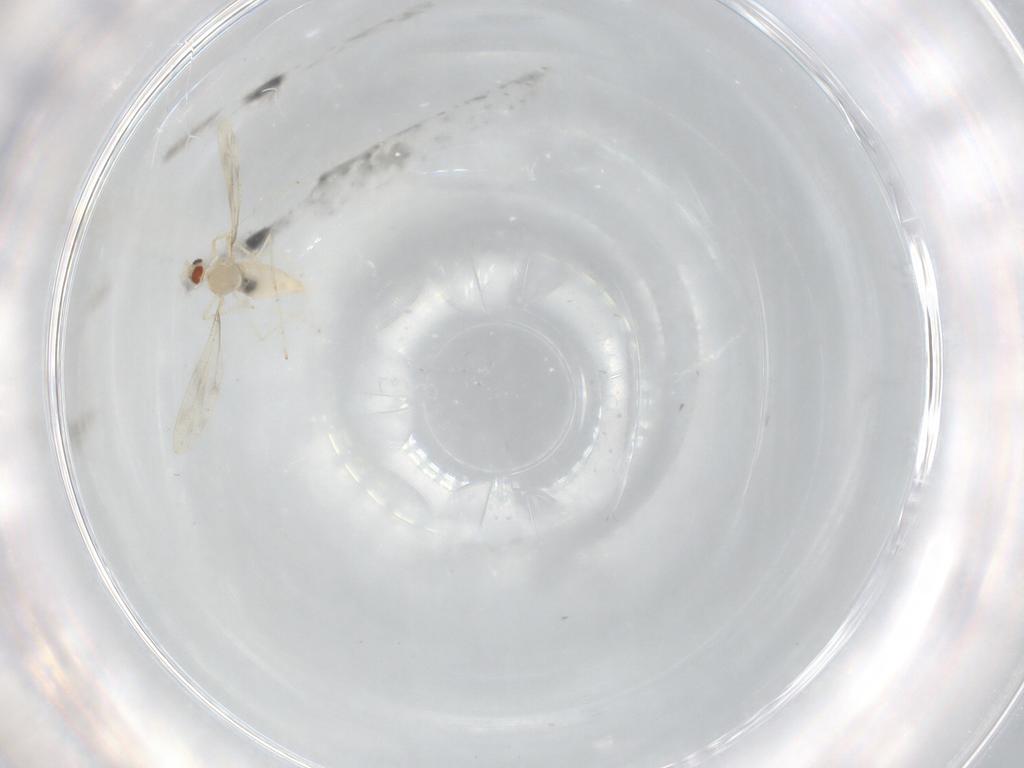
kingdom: Animalia
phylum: Arthropoda
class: Insecta
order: Diptera
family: Cecidomyiidae
